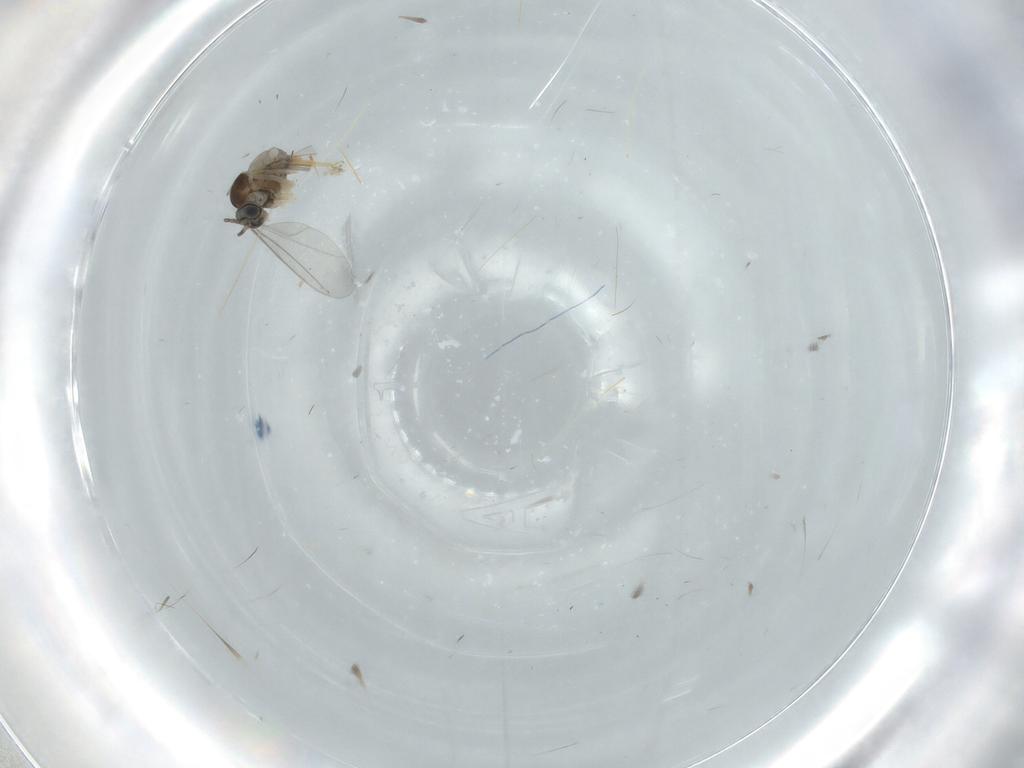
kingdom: Animalia
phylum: Arthropoda
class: Insecta
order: Diptera
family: Cecidomyiidae
